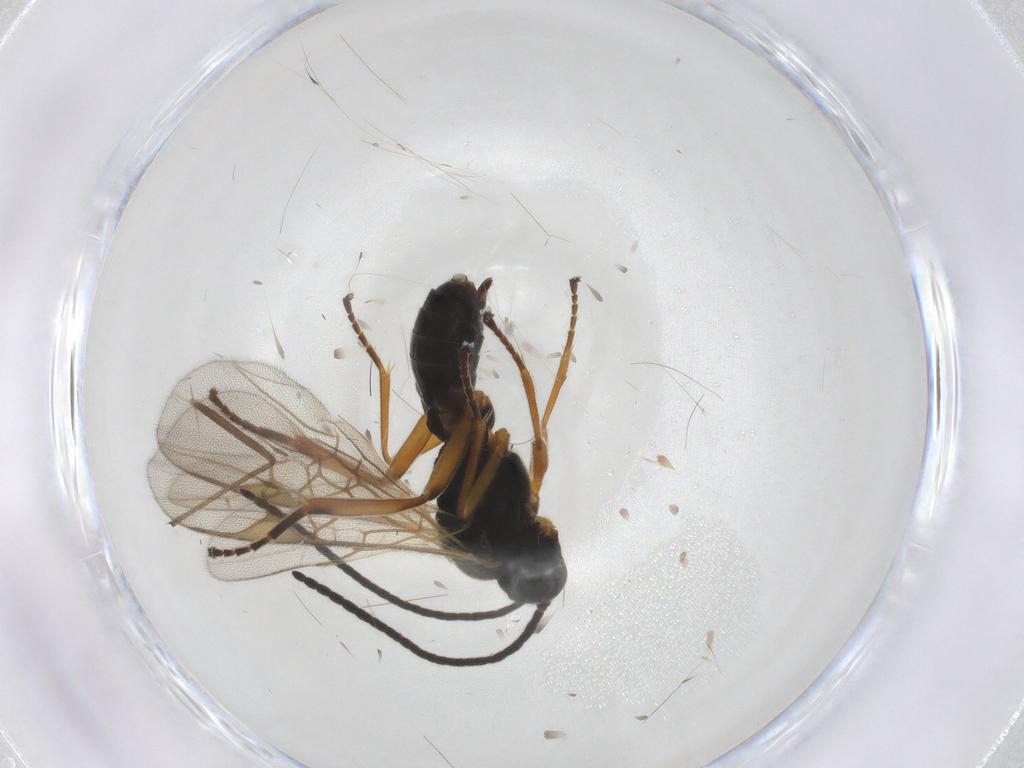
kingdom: Animalia
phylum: Arthropoda
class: Insecta
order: Hymenoptera
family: Braconidae
